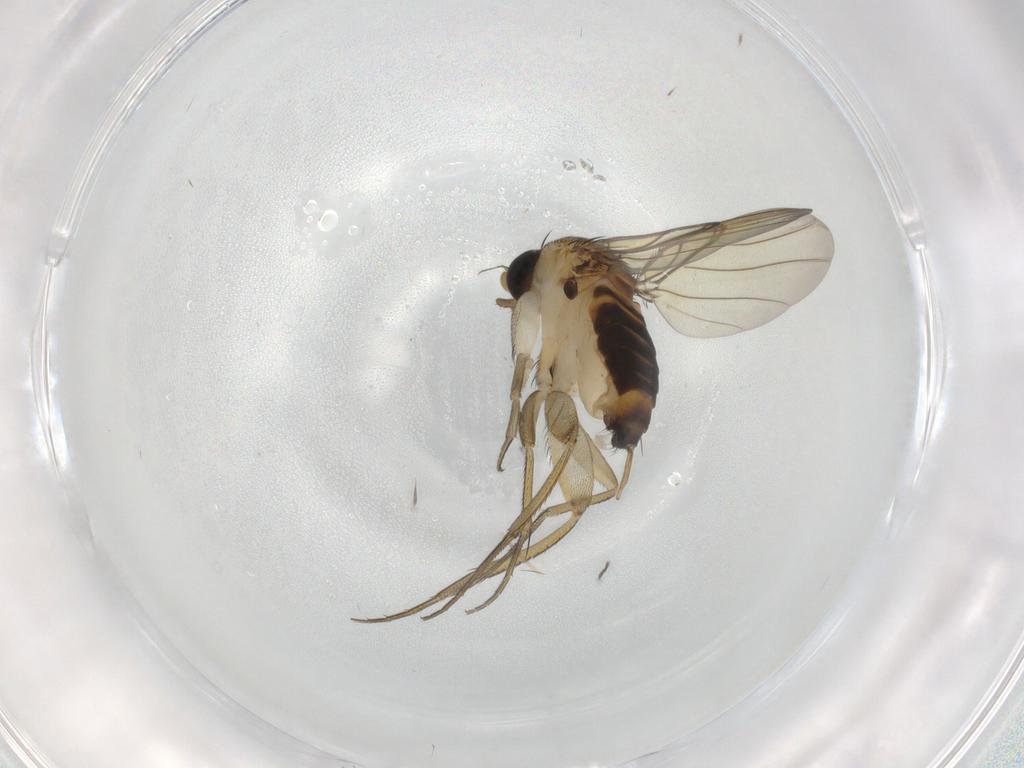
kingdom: Animalia
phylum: Arthropoda
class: Insecta
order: Diptera
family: Phoridae
